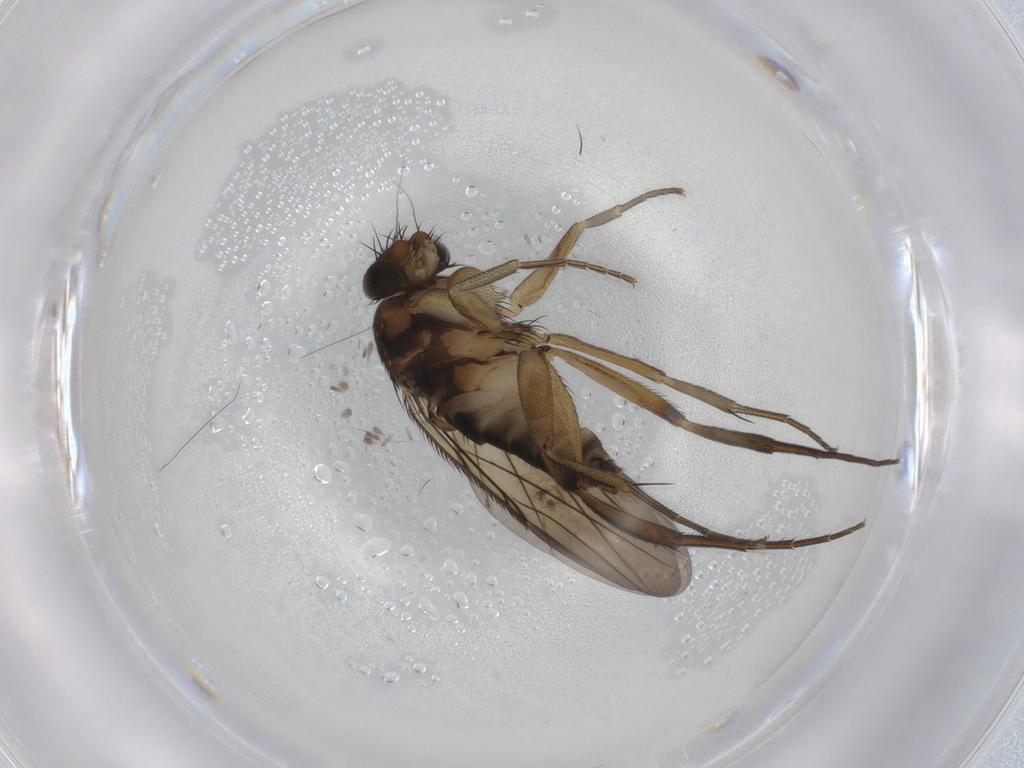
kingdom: Animalia
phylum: Arthropoda
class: Insecta
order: Diptera
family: Phoridae
